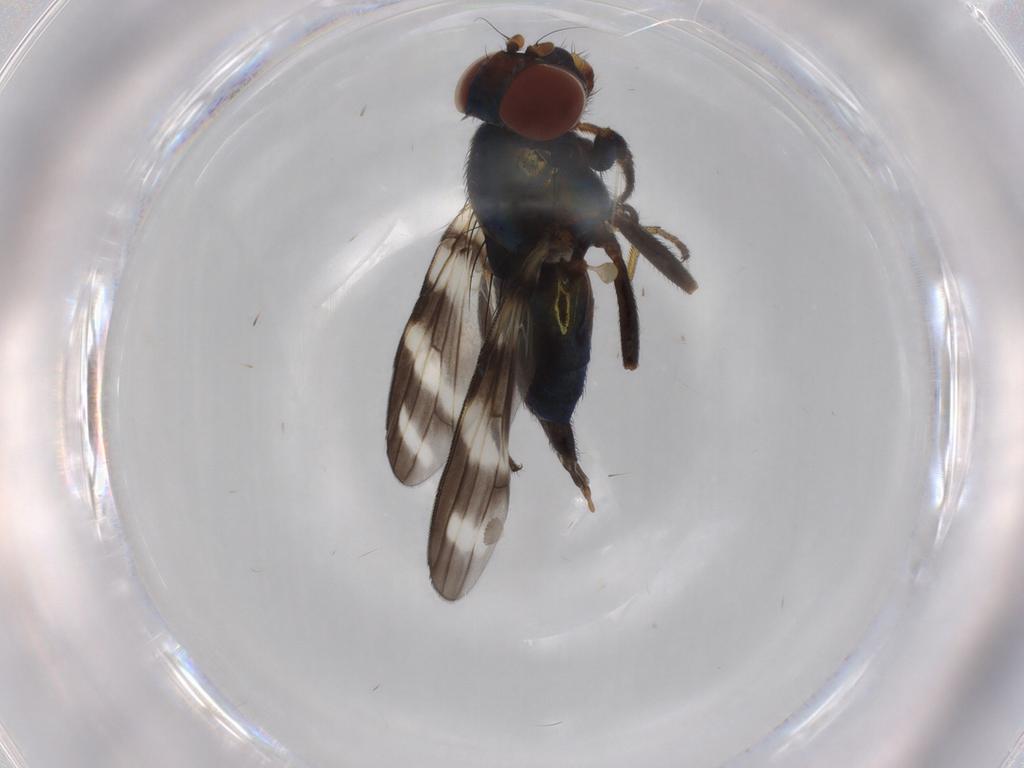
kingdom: Animalia
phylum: Arthropoda
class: Insecta
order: Diptera
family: Ulidiidae
